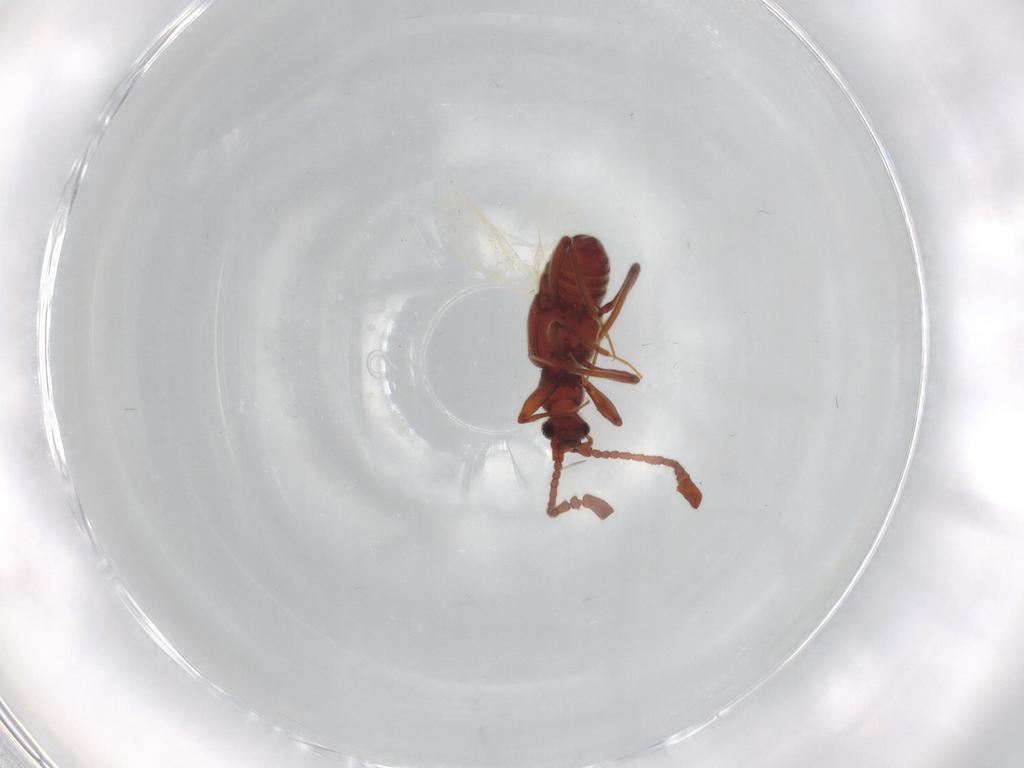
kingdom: Animalia
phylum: Arthropoda
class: Insecta
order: Coleoptera
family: Staphylinidae
